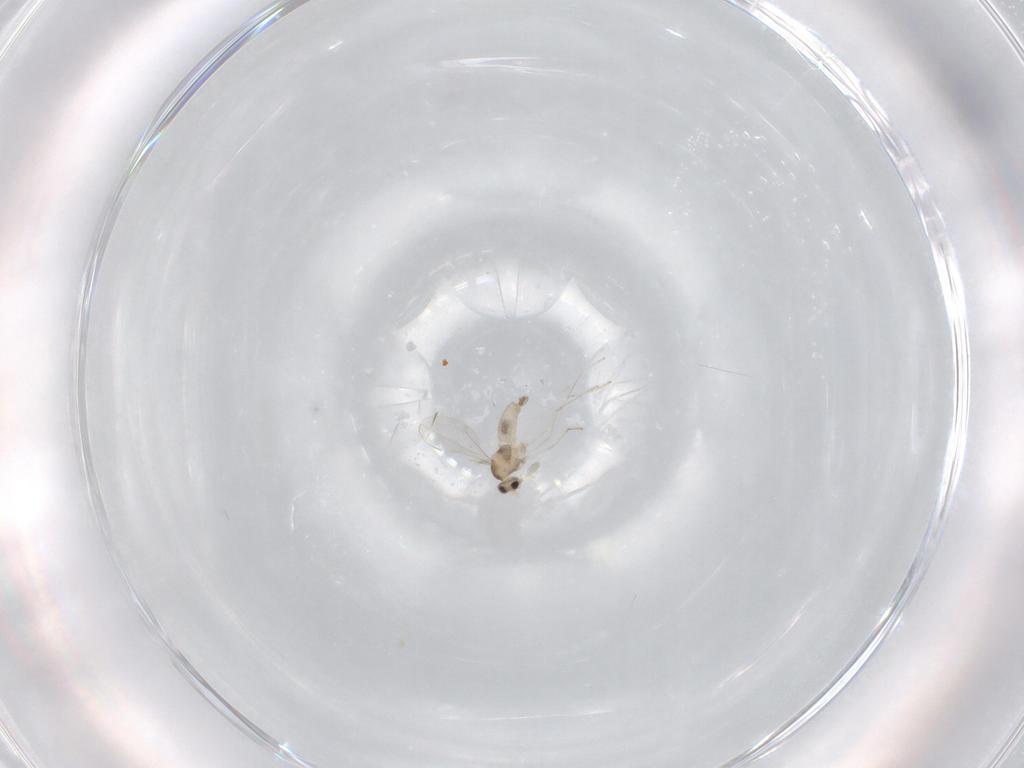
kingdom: Animalia
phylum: Arthropoda
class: Insecta
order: Diptera
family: Cecidomyiidae
